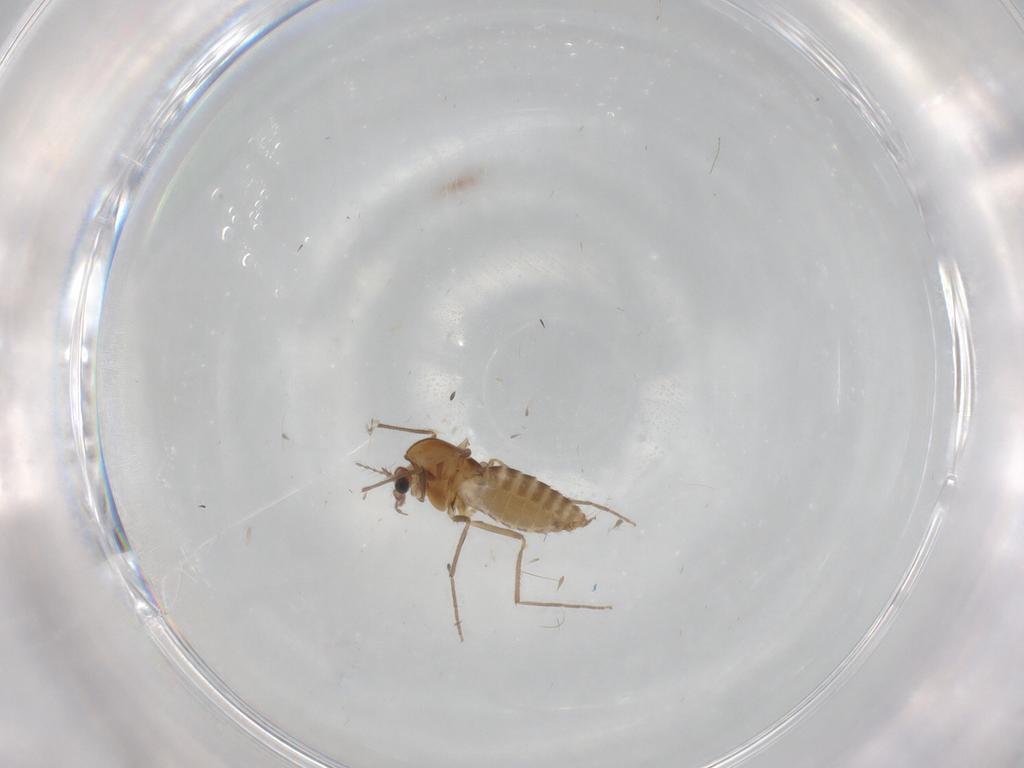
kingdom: Animalia
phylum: Arthropoda
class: Insecta
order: Diptera
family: Chironomidae
